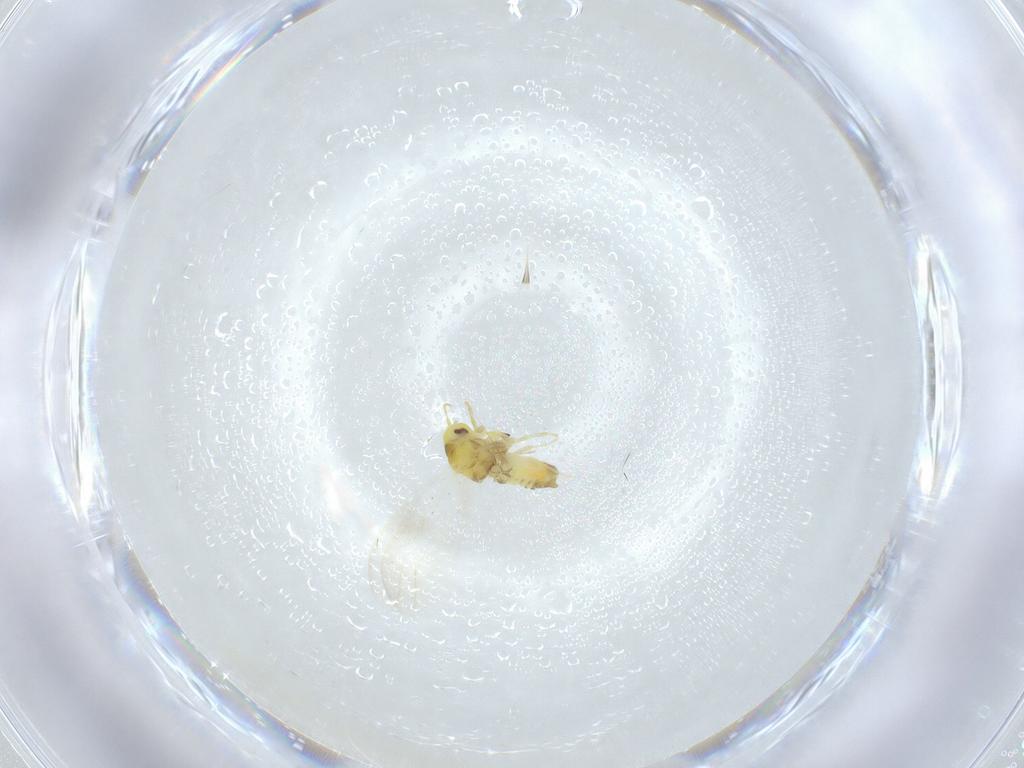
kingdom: Animalia
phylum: Arthropoda
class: Insecta
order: Hemiptera
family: Aleyrodidae
